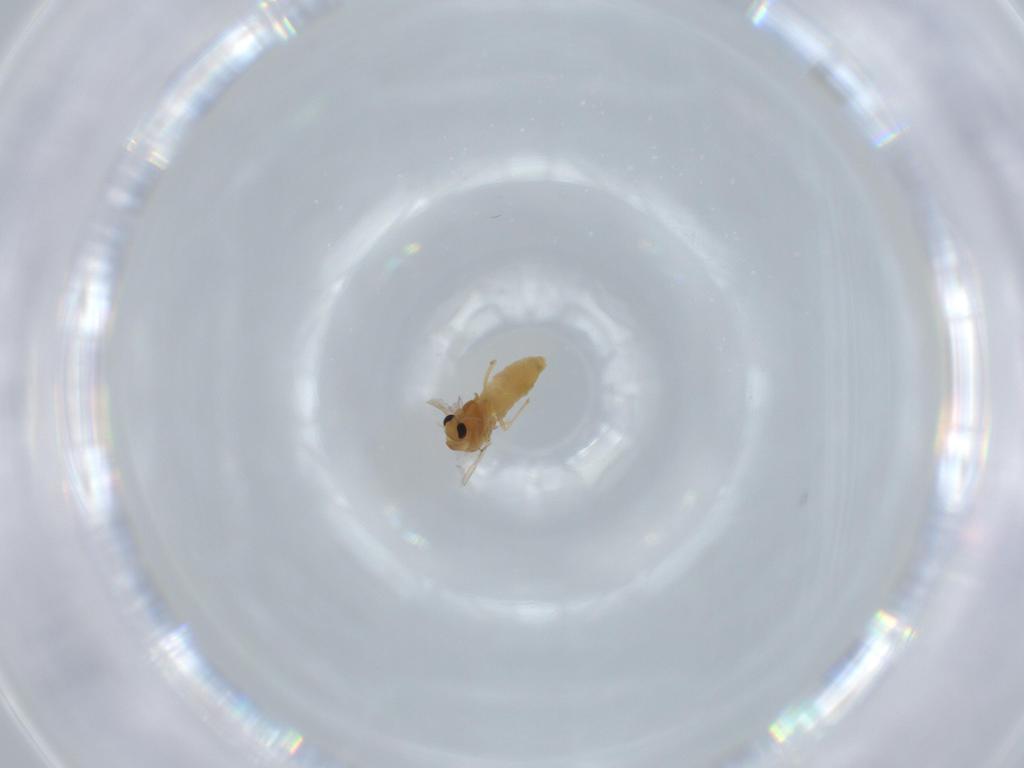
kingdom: Animalia
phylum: Arthropoda
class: Insecta
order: Diptera
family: Chironomidae
